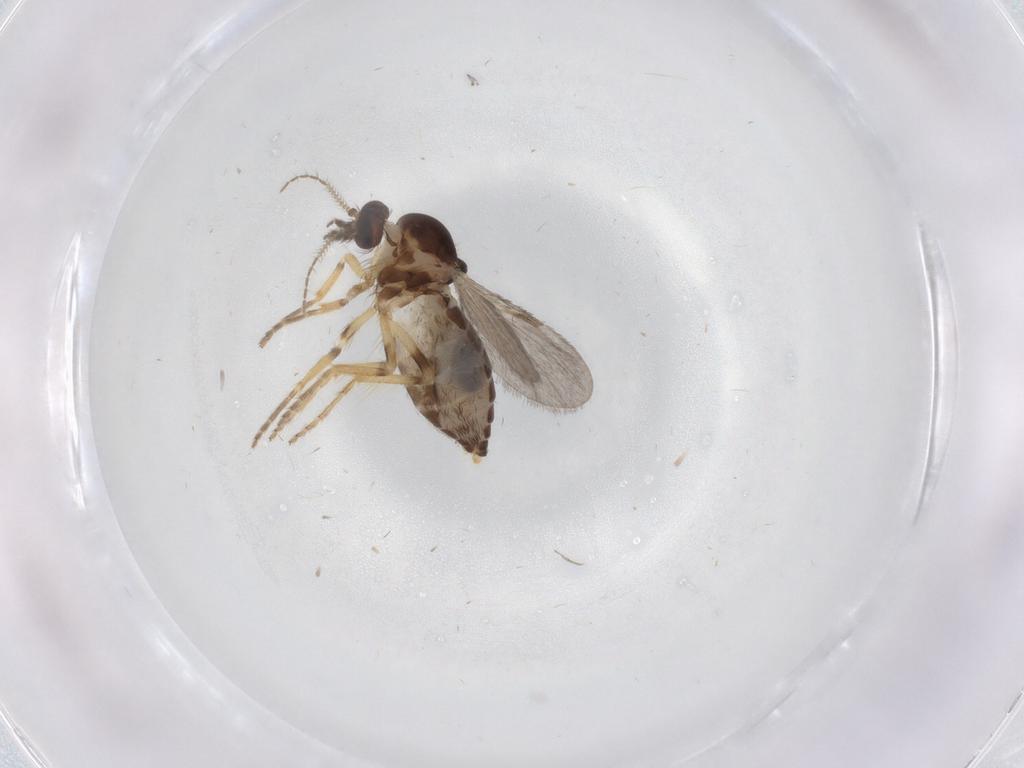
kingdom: Animalia
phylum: Arthropoda
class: Insecta
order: Diptera
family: Ceratopogonidae
